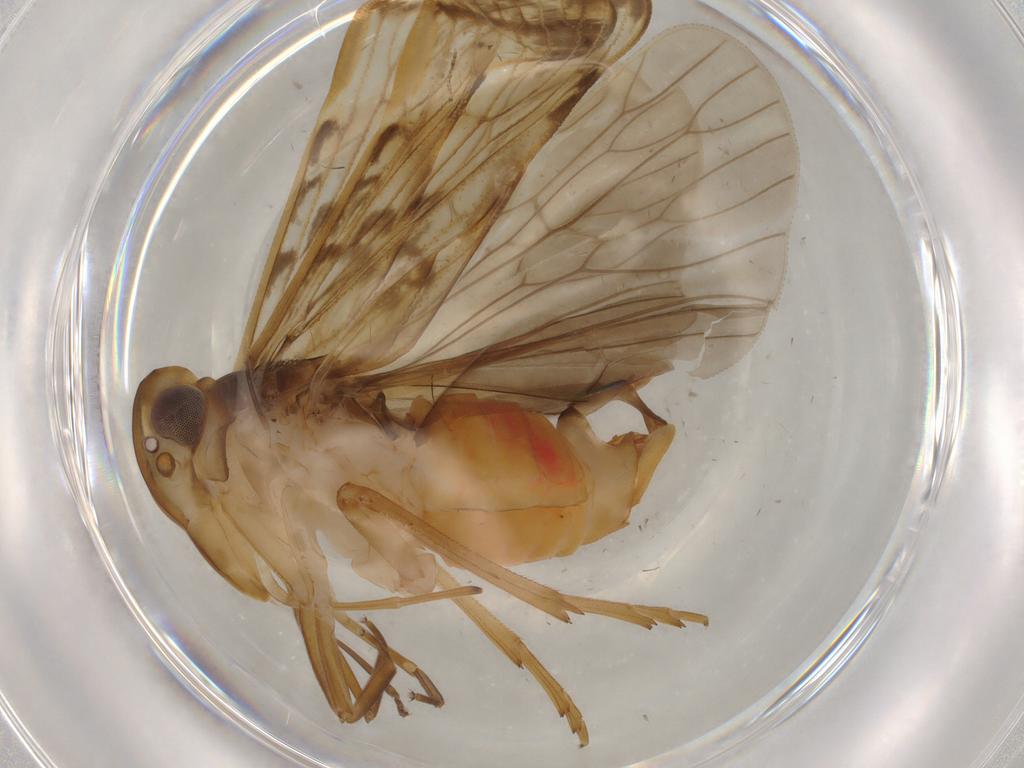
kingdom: Animalia
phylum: Arthropoda
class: Insecta
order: Hemiptera
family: Cixiidae
